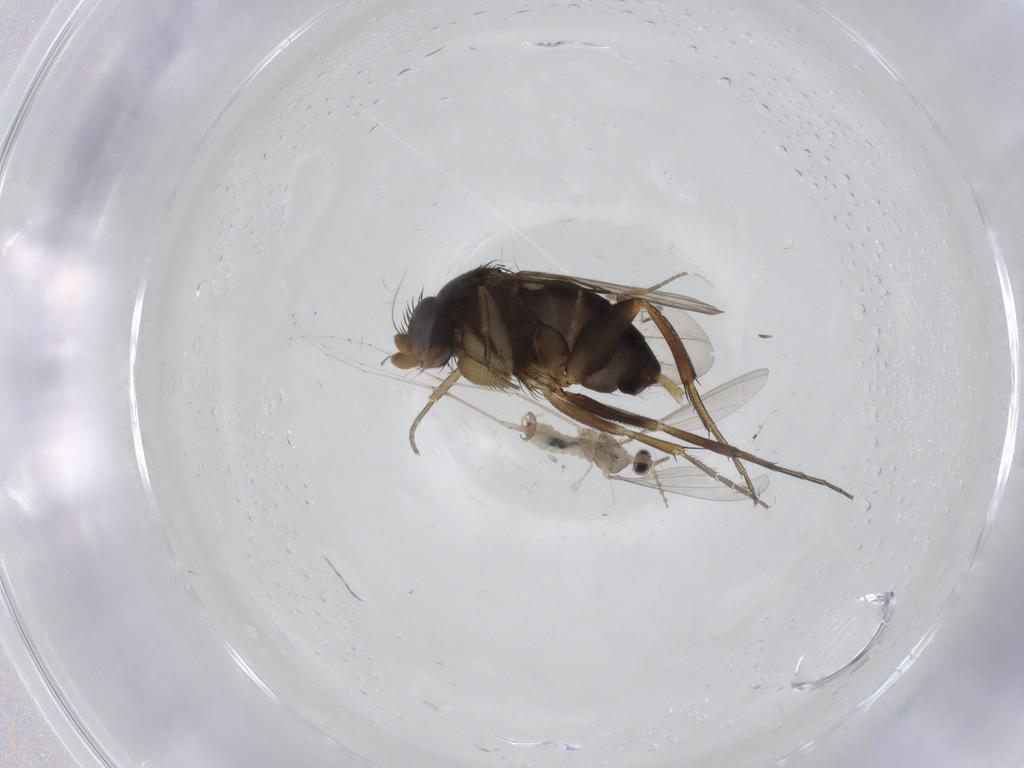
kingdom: Animalia
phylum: Arthropoda
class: Insecta
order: Diptera
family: Phoridae
